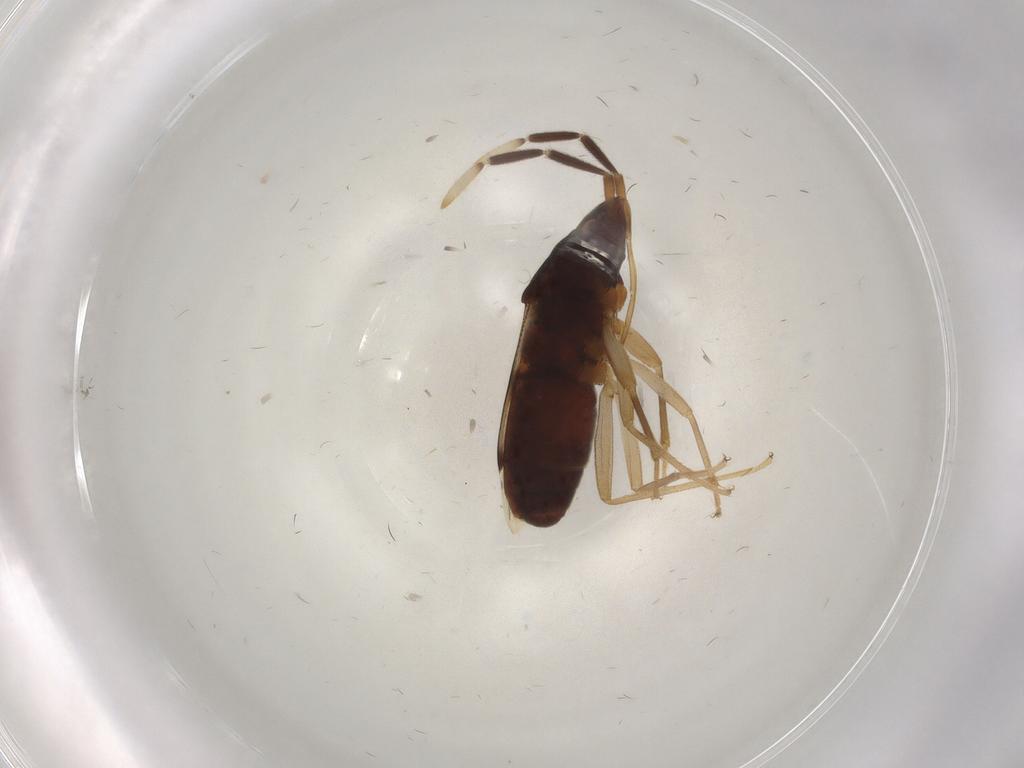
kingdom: Animalia
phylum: Arthropoda
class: Insecta
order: Hemiptera
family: Rhyparochromidae
